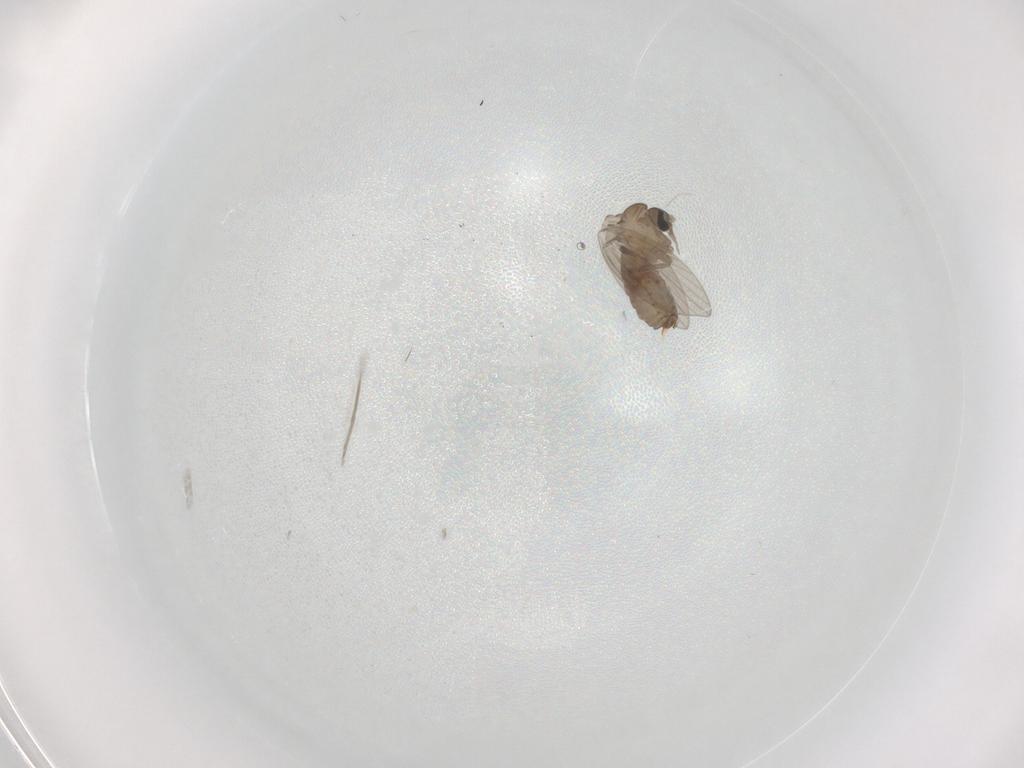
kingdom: Animalia
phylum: Arthropoda
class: Insecta
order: Diptera
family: Psychodidae
